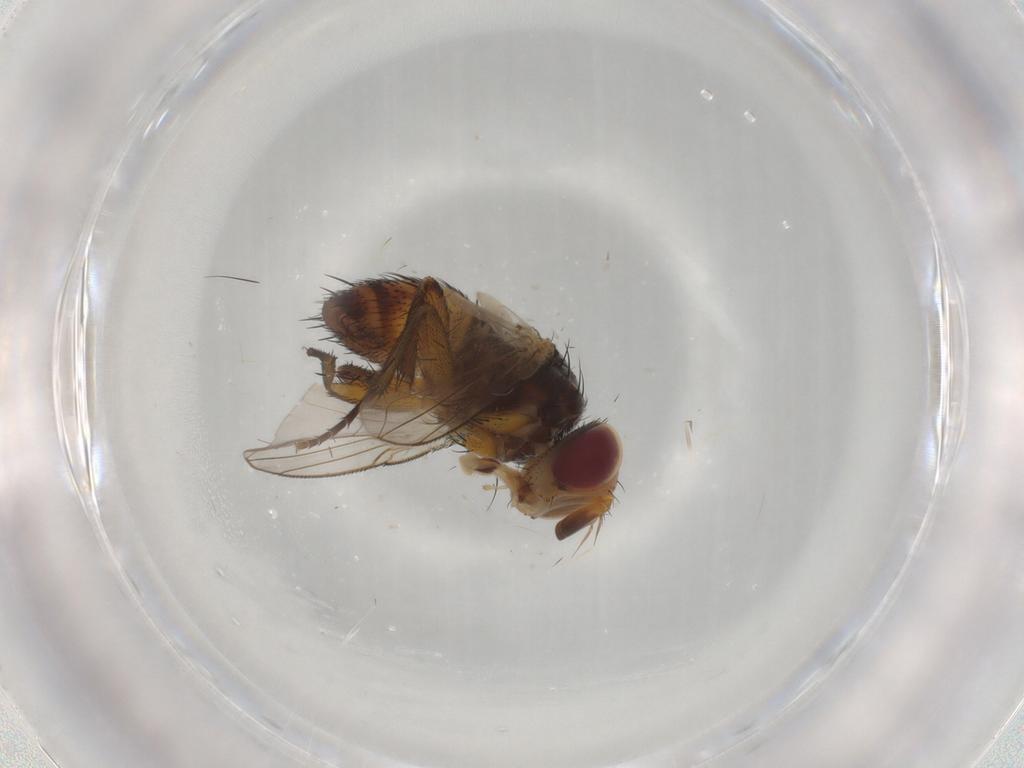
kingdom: Animalia
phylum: Arthropoda
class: Insecta
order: Diptera
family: Tachinidae
